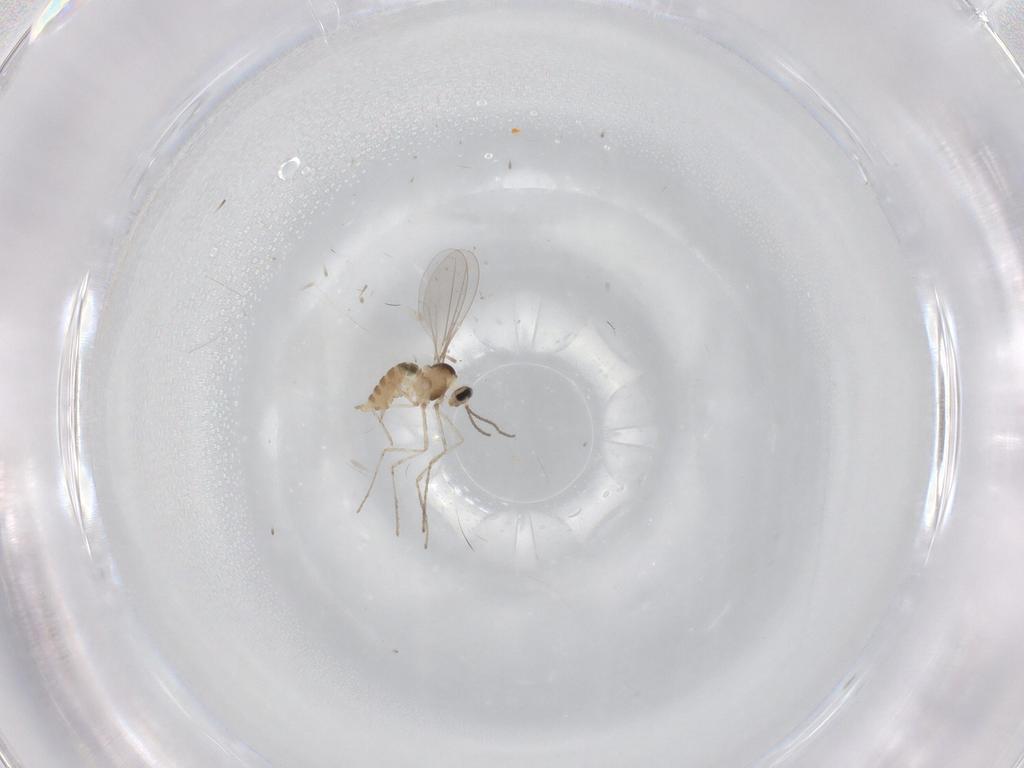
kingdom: Animalia
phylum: Arthropoda
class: Insecta
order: Diptera
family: Cecidomyiidae
